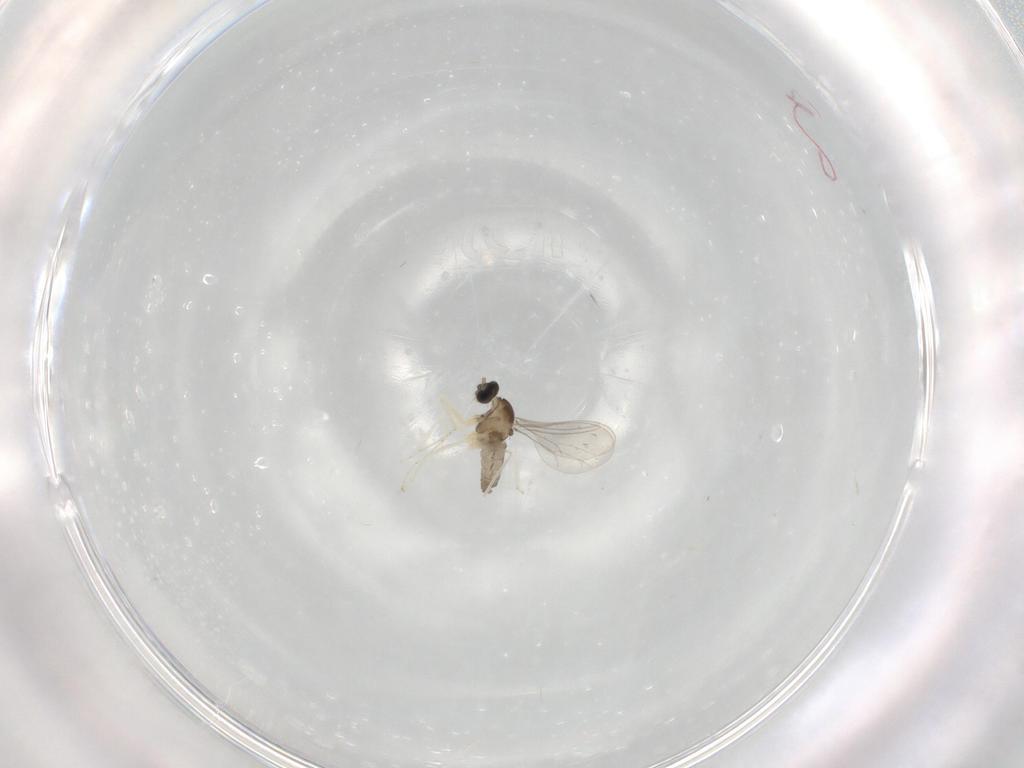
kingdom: Animalia
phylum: Arthropoda
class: Insecta
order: Diptera
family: Cecidomyiidae
